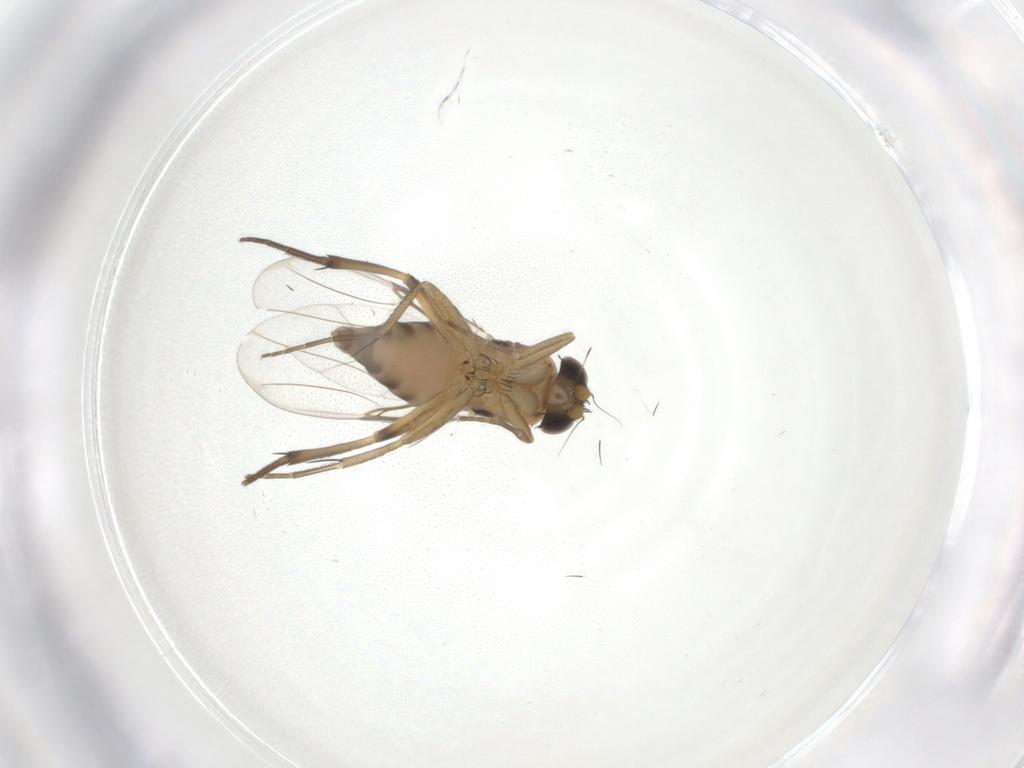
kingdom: Animalia
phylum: Arthropoda
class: Insecta
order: Diptera
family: Phoridae
